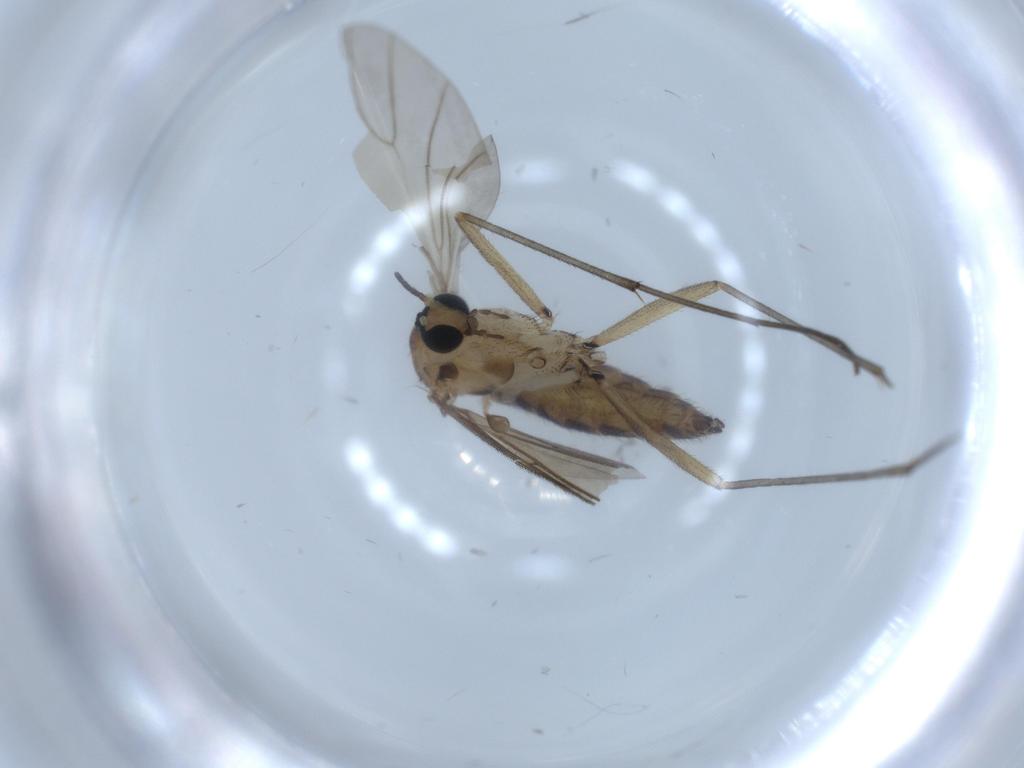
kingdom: Animalia
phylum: Arthropoda
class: Insecta
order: Diptera
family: Sciaridae
